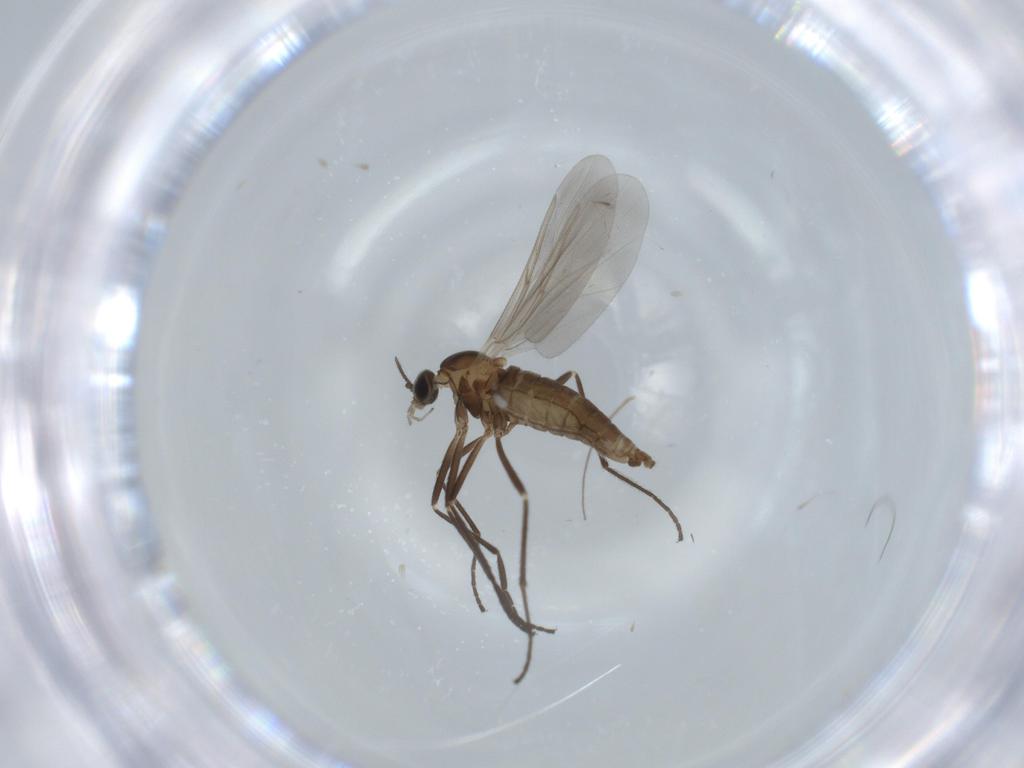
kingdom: Animalia
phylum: Arthropoda
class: Insecta
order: Diptera
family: Cecidomyiidae
